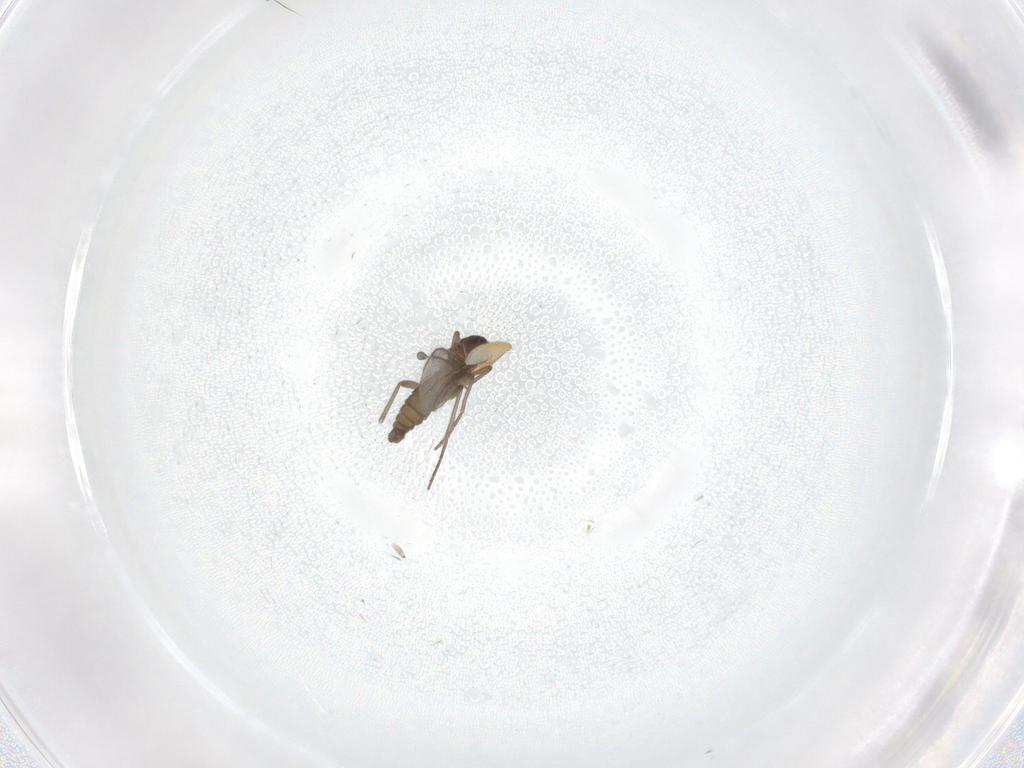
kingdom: Animalia
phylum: Arthropoda
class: Insecta
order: Diptera
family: Chloropidae
